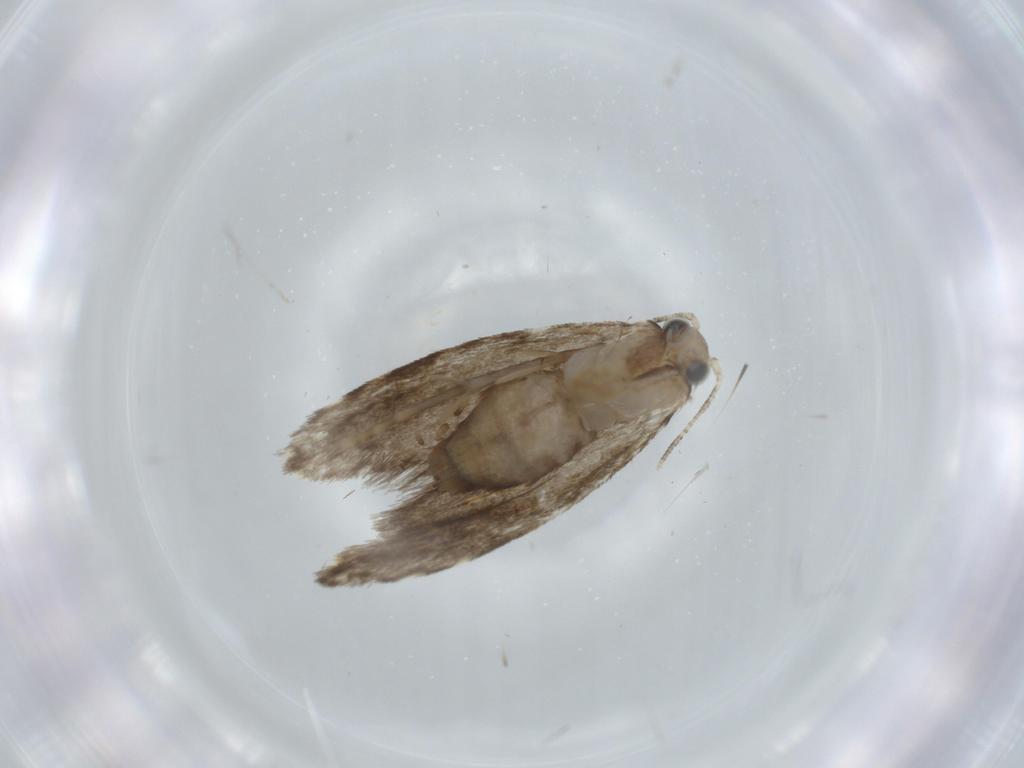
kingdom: Animalia
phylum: Arthropoda
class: Insecta
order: Lepidoptera
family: Tineidae
